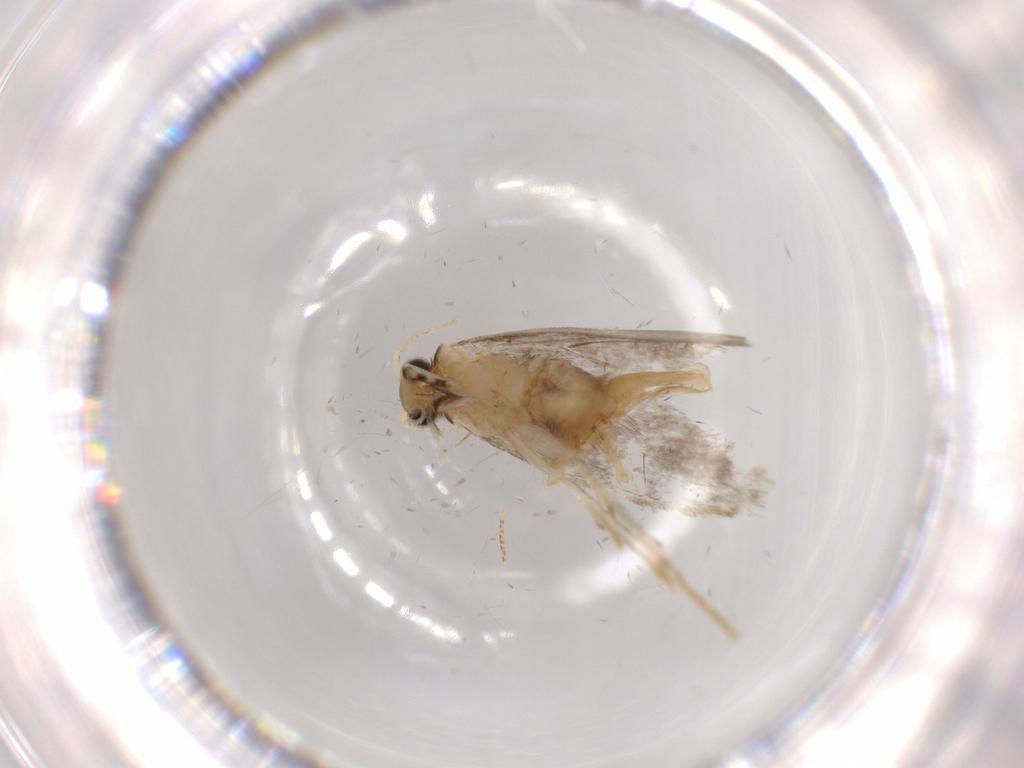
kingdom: Animalia
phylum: Arthropoda
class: Insecta
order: Lepidoptera
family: Tineidae
